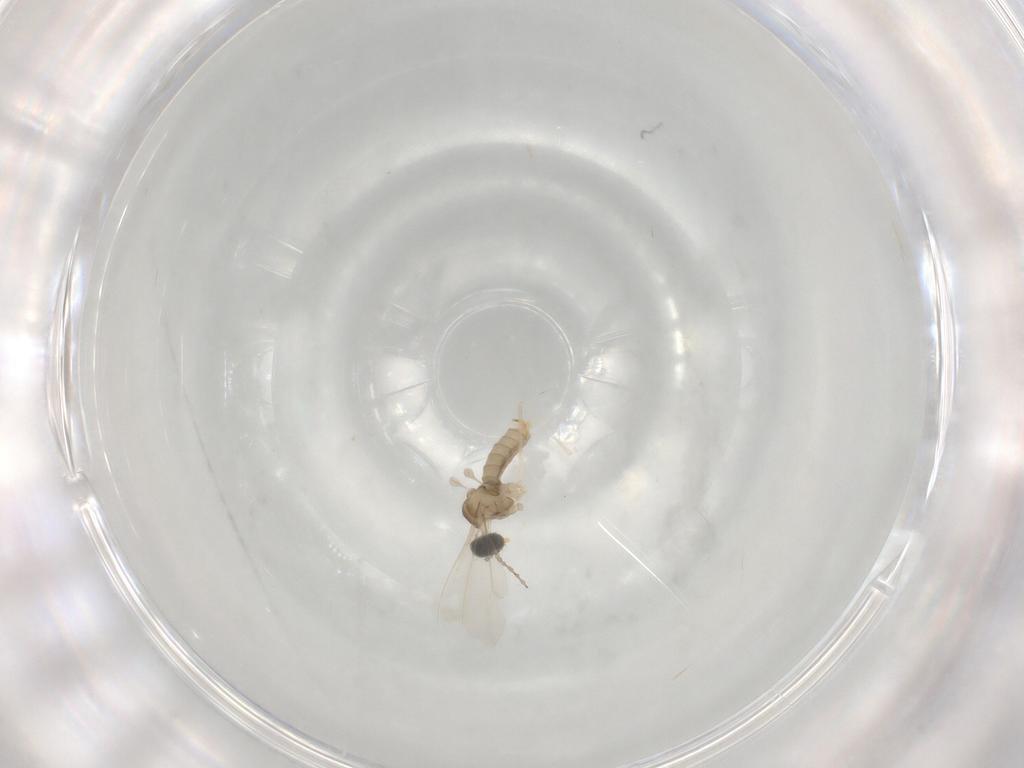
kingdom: Animalia
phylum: Arthropoda
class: Insecta
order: Diptera
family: Cecidomyiidae
